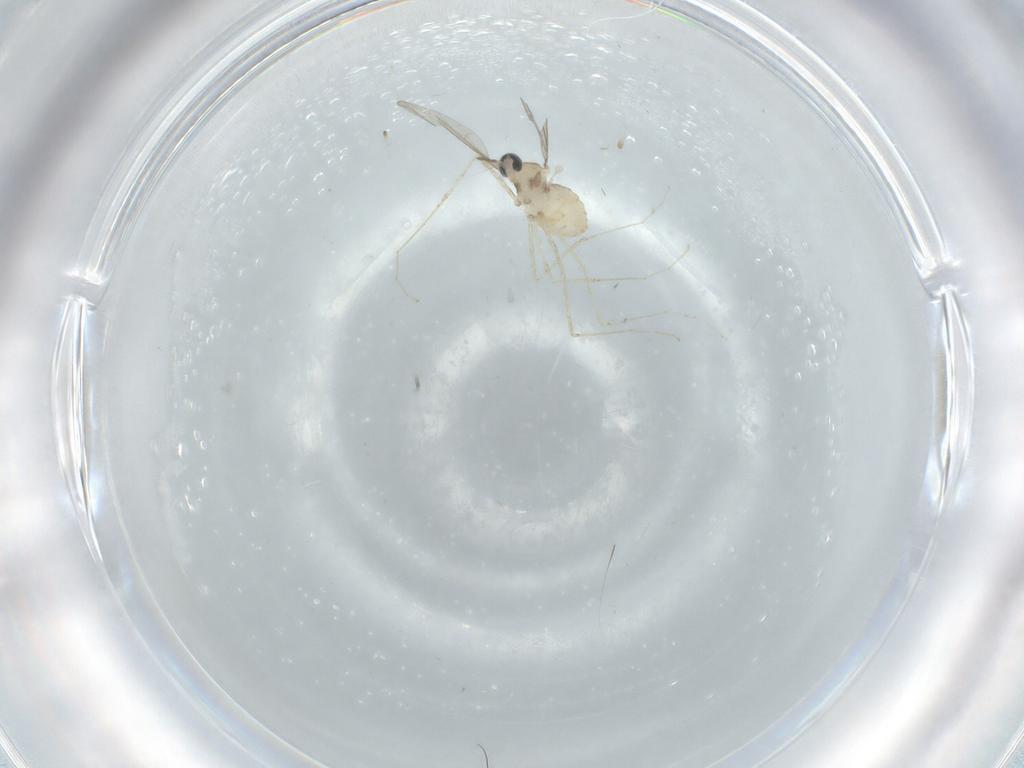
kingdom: Animalia
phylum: Arthropoda
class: Insecta
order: Diptera
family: Cecidomyiidae
